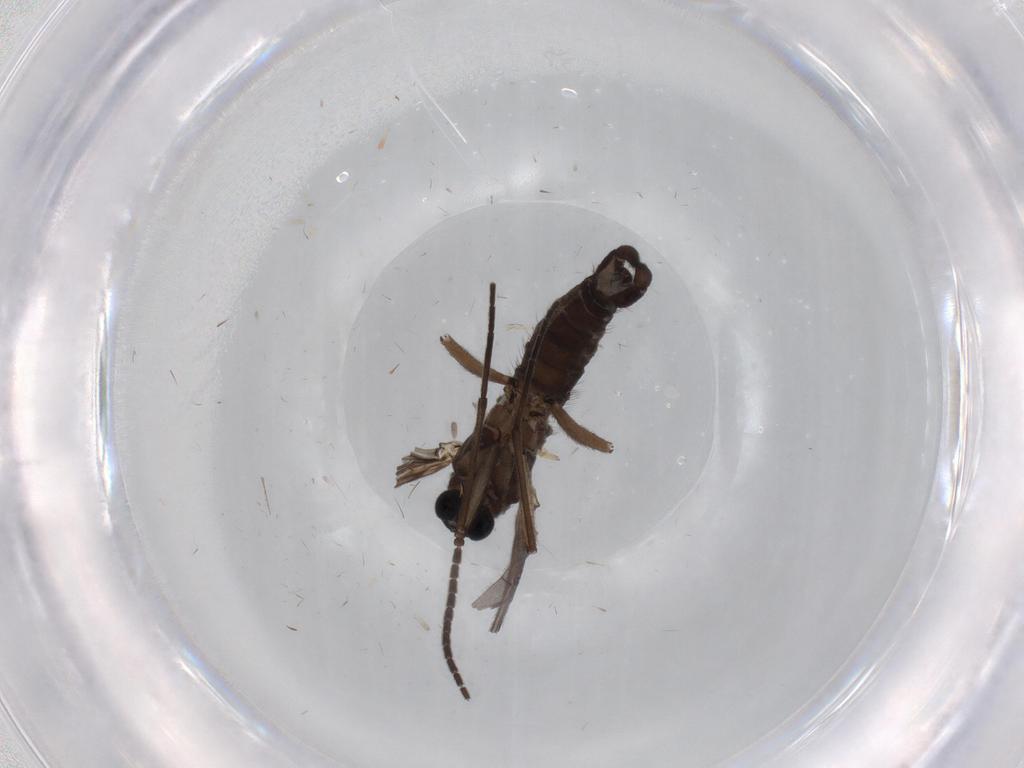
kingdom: Animalia
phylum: Arthropoda
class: Insecta
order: Diptera
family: Sciaridae
